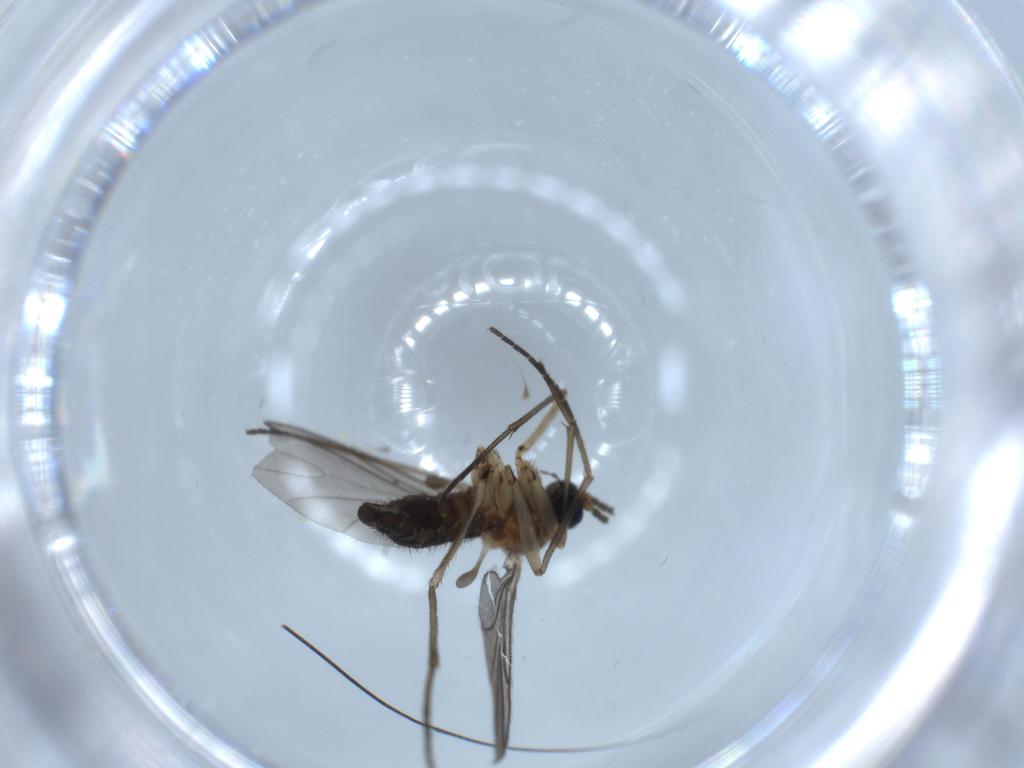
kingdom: Animalia
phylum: Arthropoda
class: Insecta
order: Diptera
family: Sciaridae
